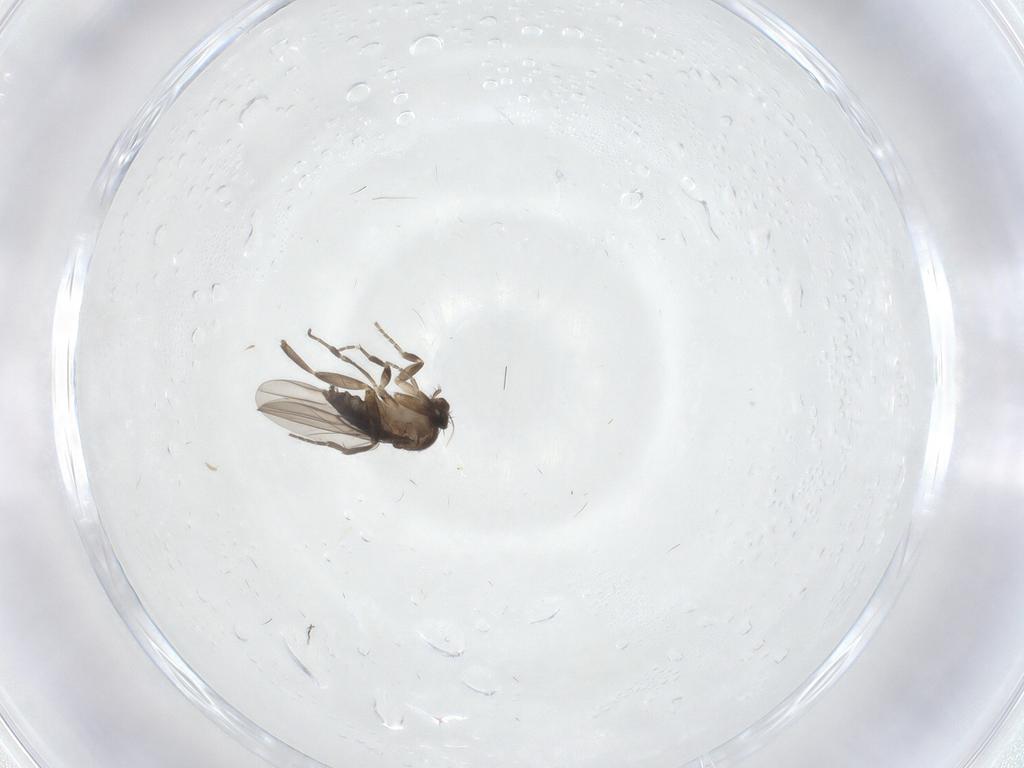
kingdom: Animalia
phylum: Arthropoda
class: Insecta
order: Diptera
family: Phoridae
